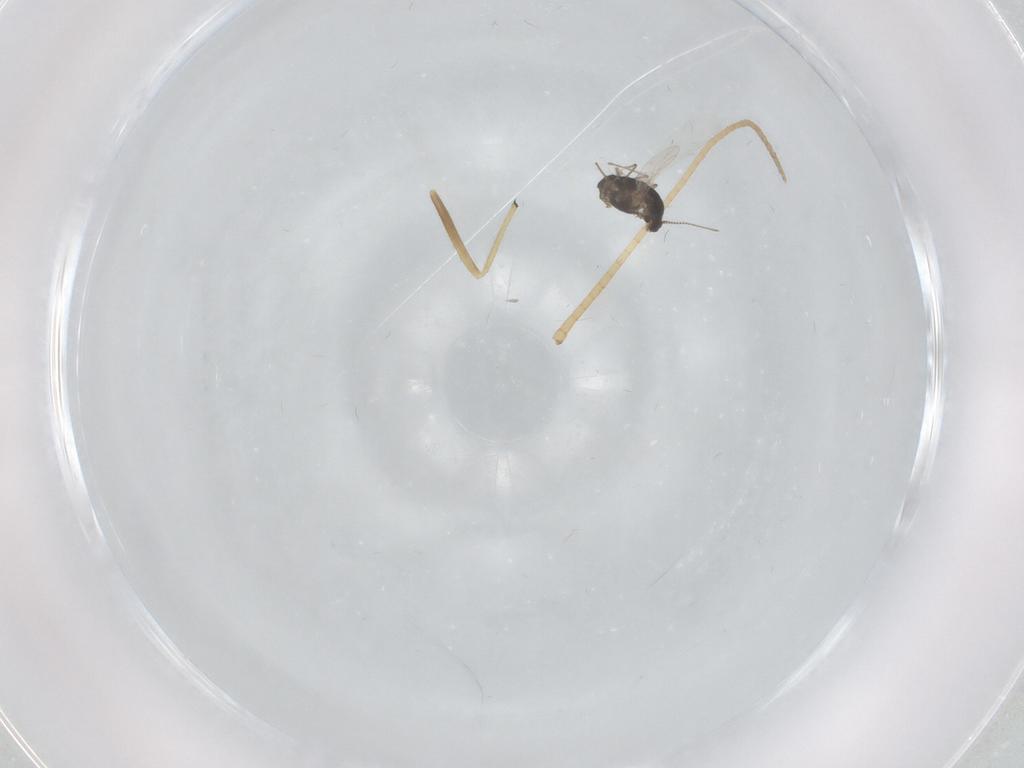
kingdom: Animalia
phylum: Arthropoda
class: Insecta
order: Diptera
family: Chironomidae
